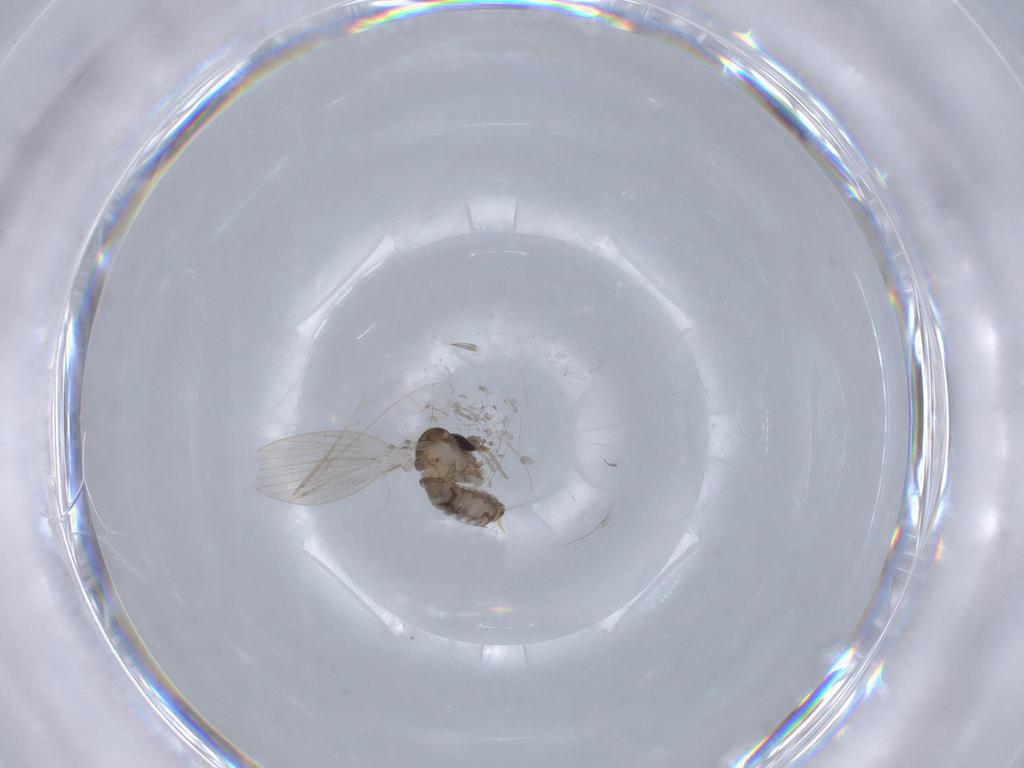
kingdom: Animalia
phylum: Arthropoda
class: Insecta
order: Diptera
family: Psychodidae
